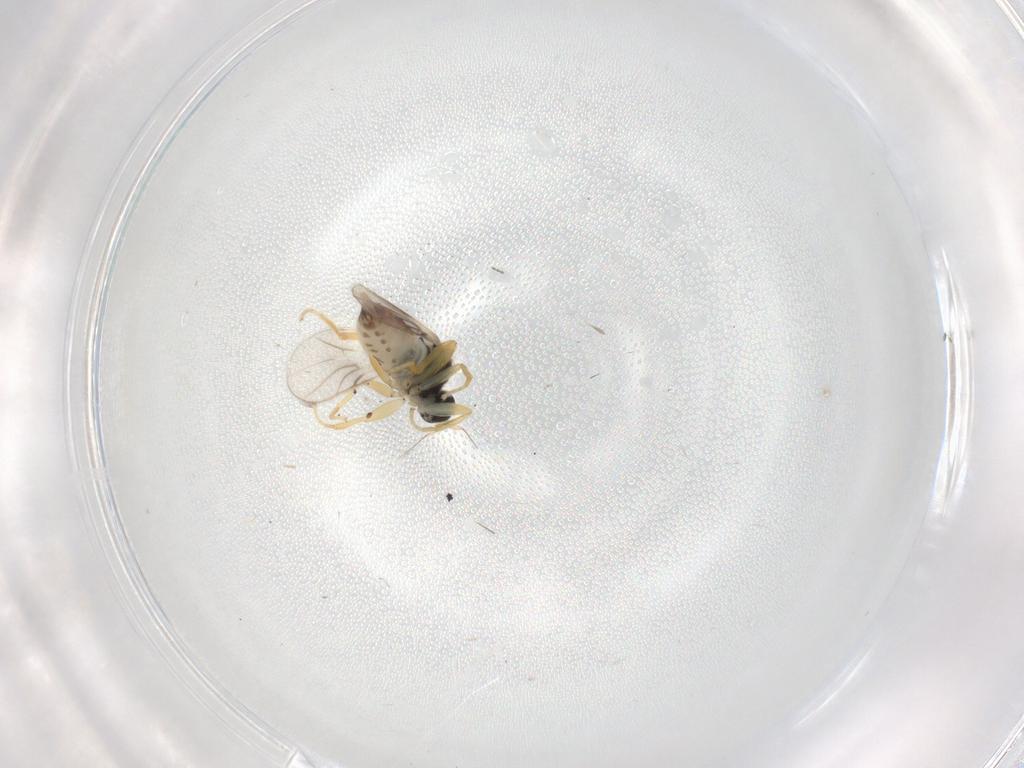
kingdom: Animalia
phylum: Arthropoda
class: Insecta
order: Diptera
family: Hybotidae
